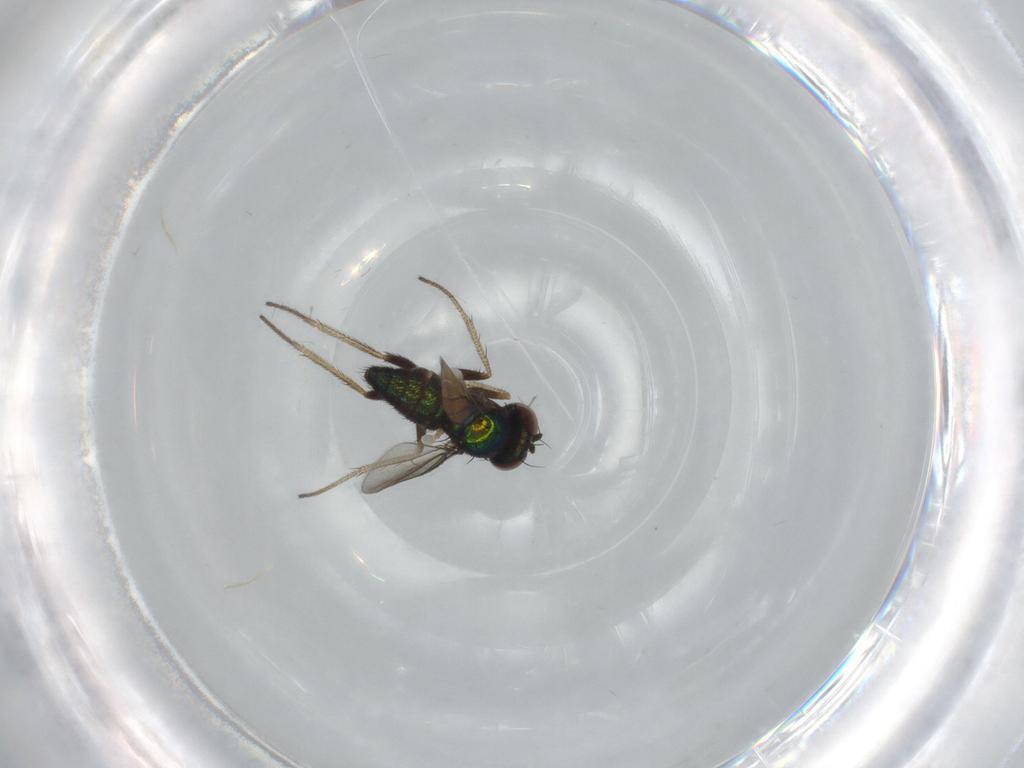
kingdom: Animalia
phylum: Arthropoda
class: Insecta
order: Diptera
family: Dolichopodidae
